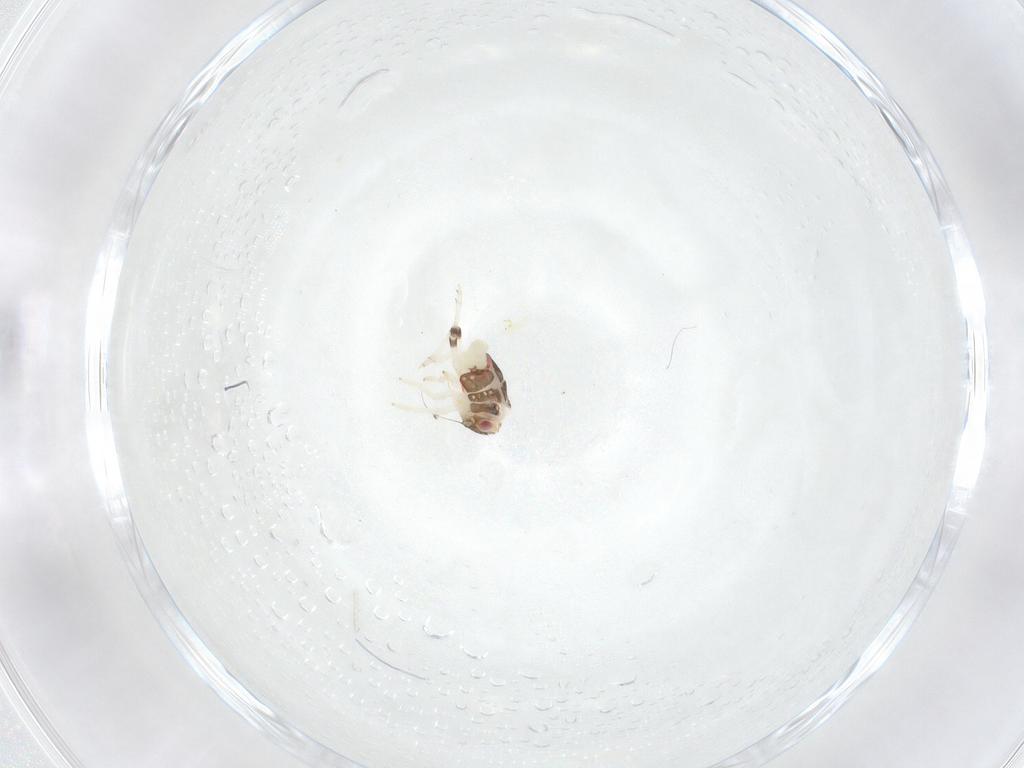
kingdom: Animalia
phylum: Arthropoda
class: Insecta
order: Hemiptera
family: Nogodinidae
